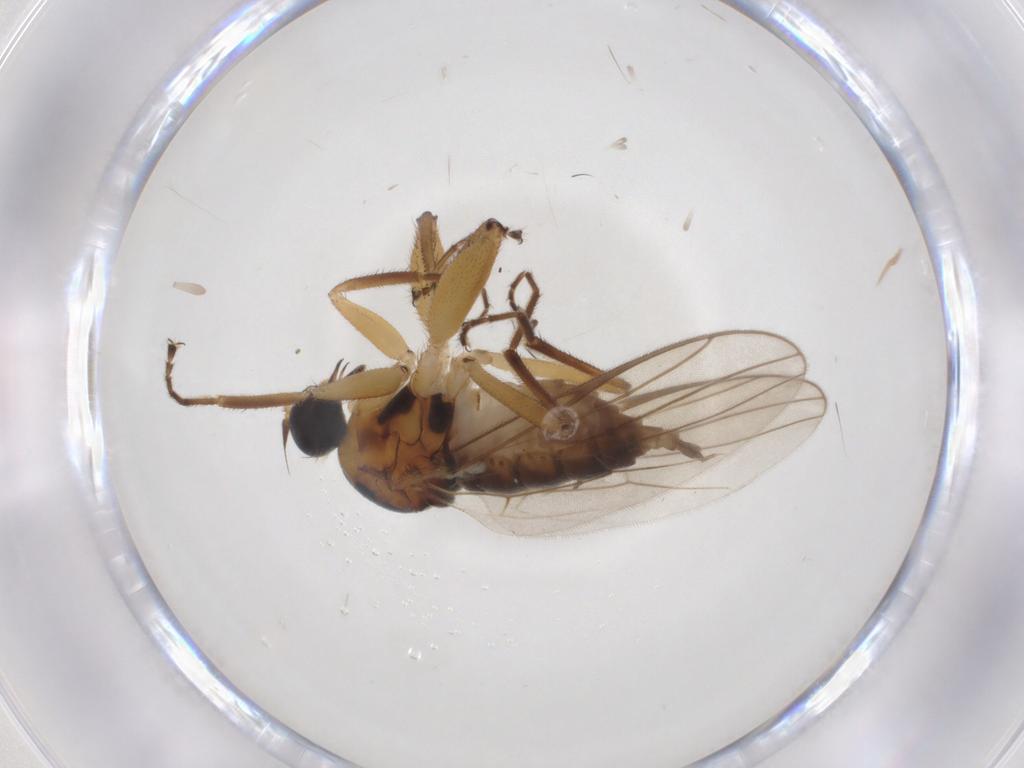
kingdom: Animalia
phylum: Arthropoda
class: Insecta
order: Diptera
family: Hybotidae
